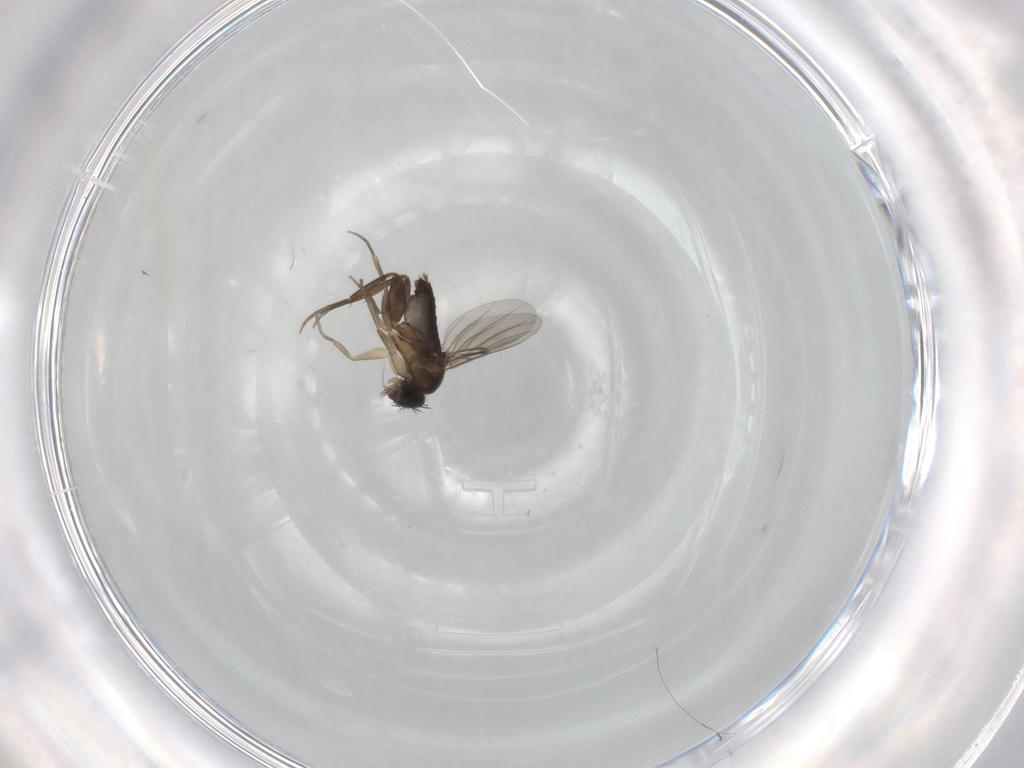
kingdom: Animalia
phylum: Arthropoda
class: Insecta
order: Diptera
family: Phoridae
